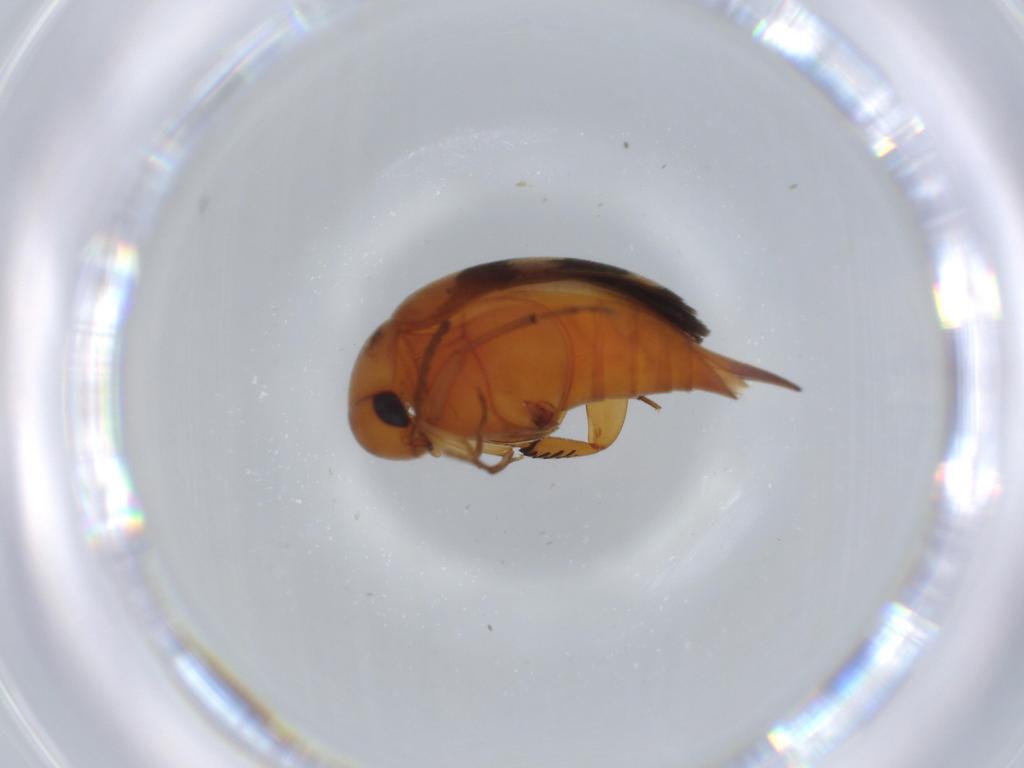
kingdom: Animalia
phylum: Arthropoda
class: Insecta
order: Coleoptera
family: Mordellidae
